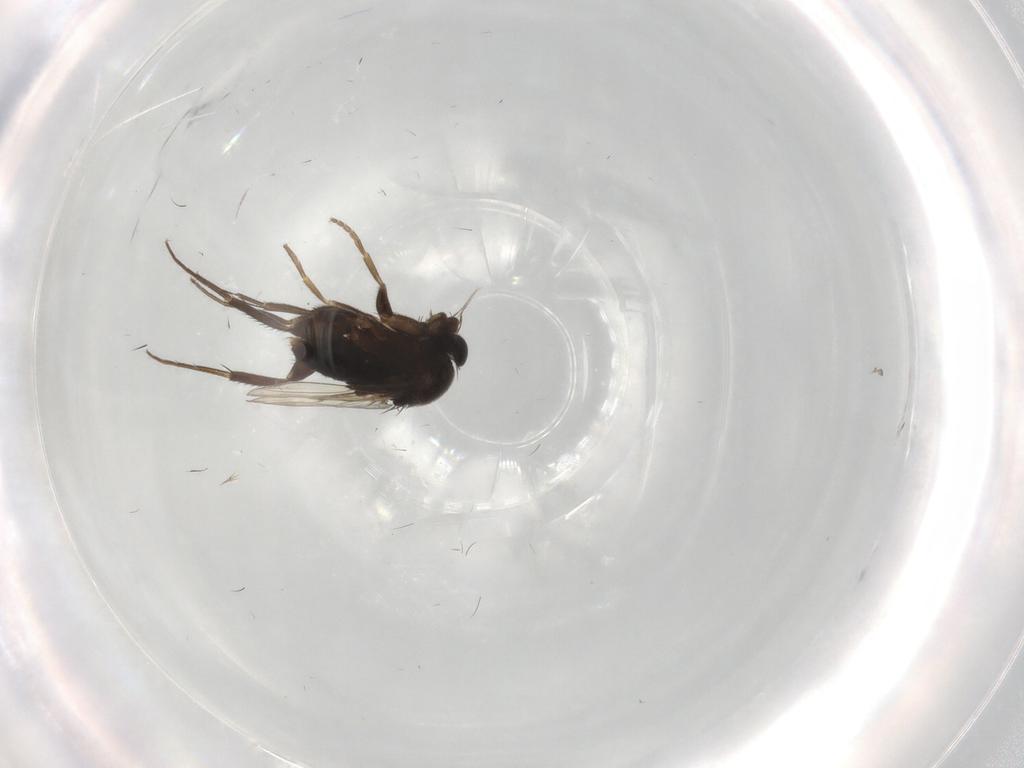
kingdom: Animalia
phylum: Arthropoda
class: Insecta
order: Diptera
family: Phoridae
